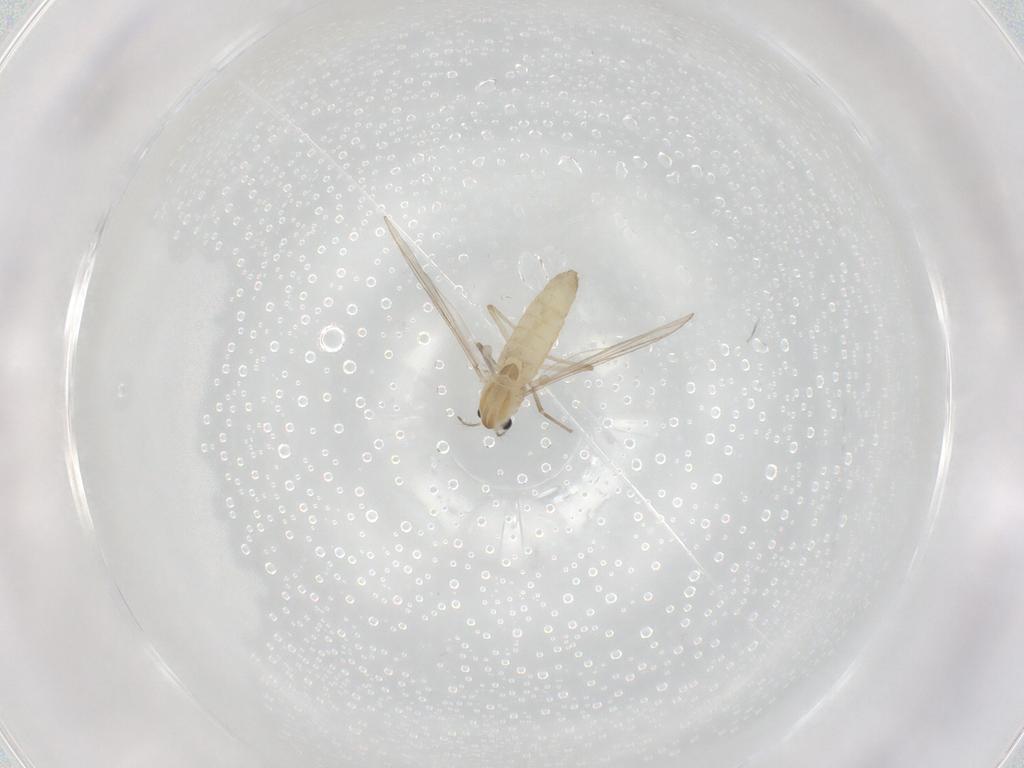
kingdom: Animalia
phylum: Arthropoda
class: Insecta
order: Diptera
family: Chironomidae
